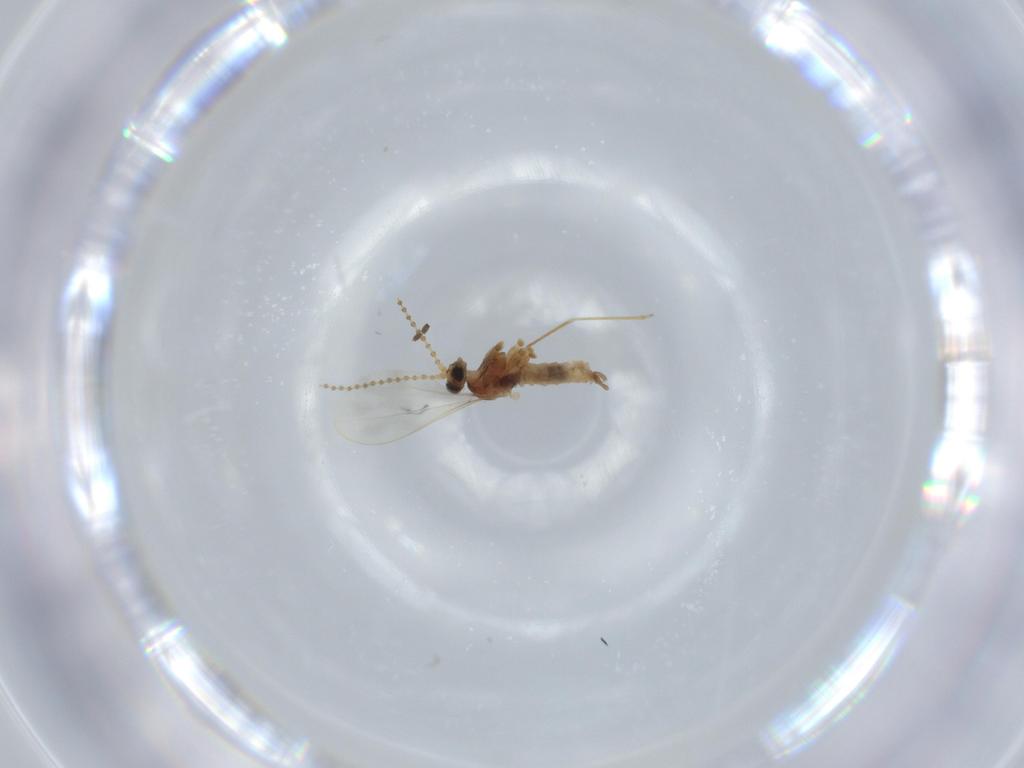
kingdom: Animalia
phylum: Arthropoda
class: Insecta
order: Diptera
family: Cecidomyiidae
